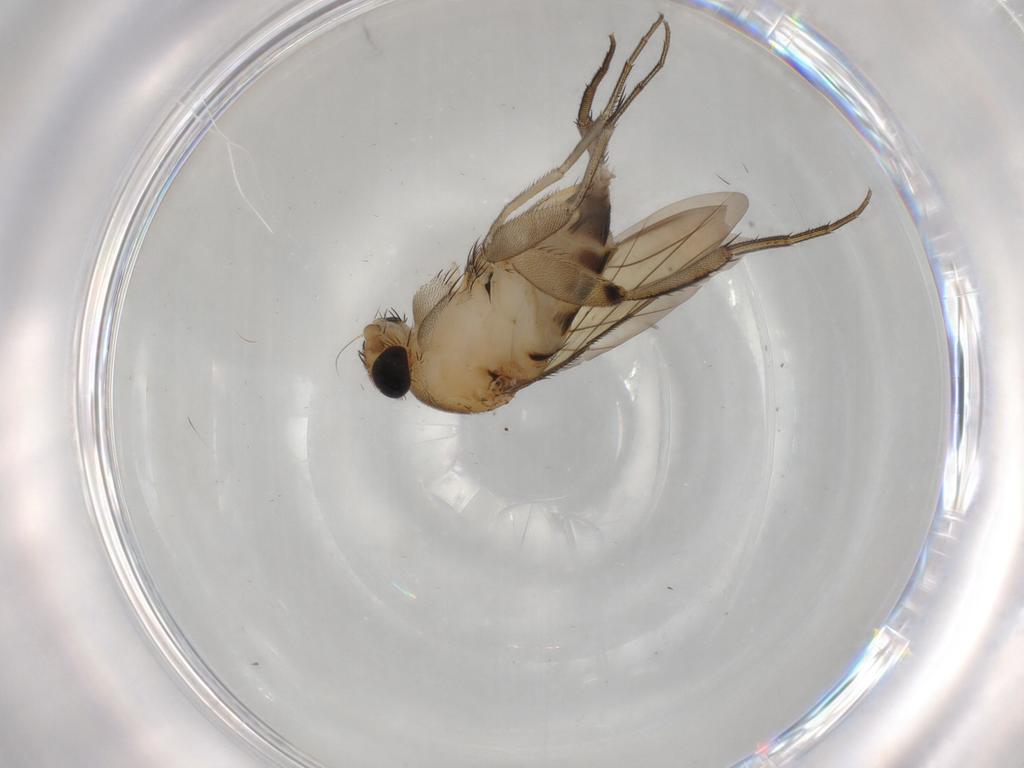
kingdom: Animalia
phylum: Arthropoda
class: Insecta
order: Diptera
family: Phoridae
